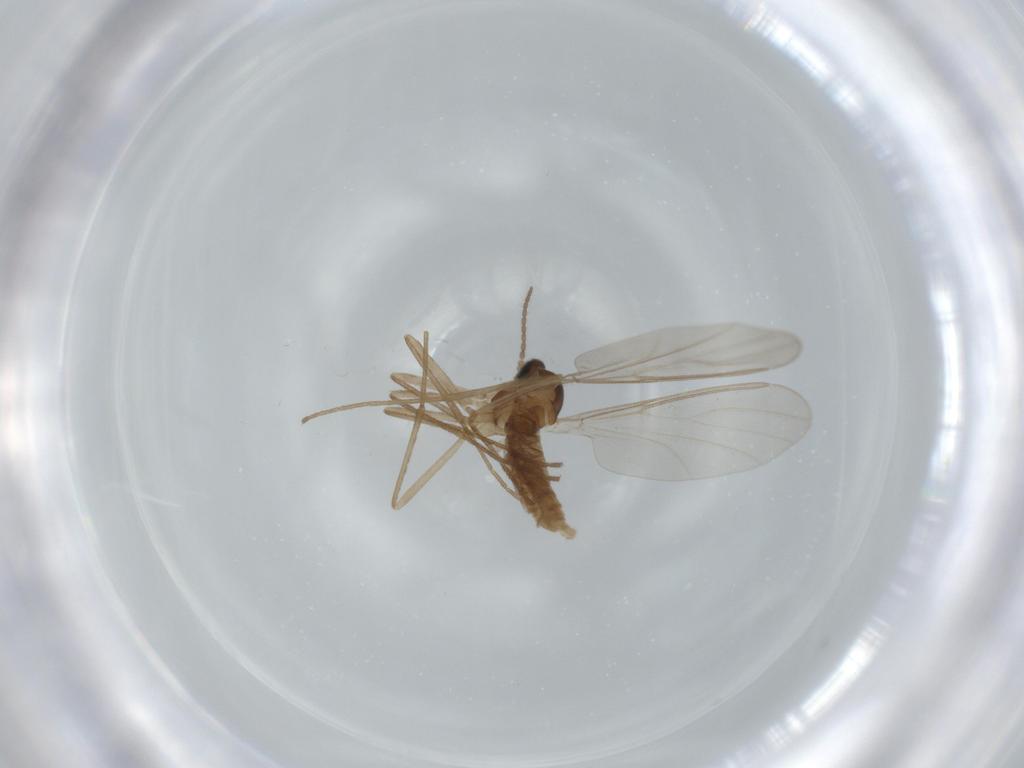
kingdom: Animalia
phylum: Arthropoda
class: Insecta
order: Diptera
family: Cecidomyiidae
